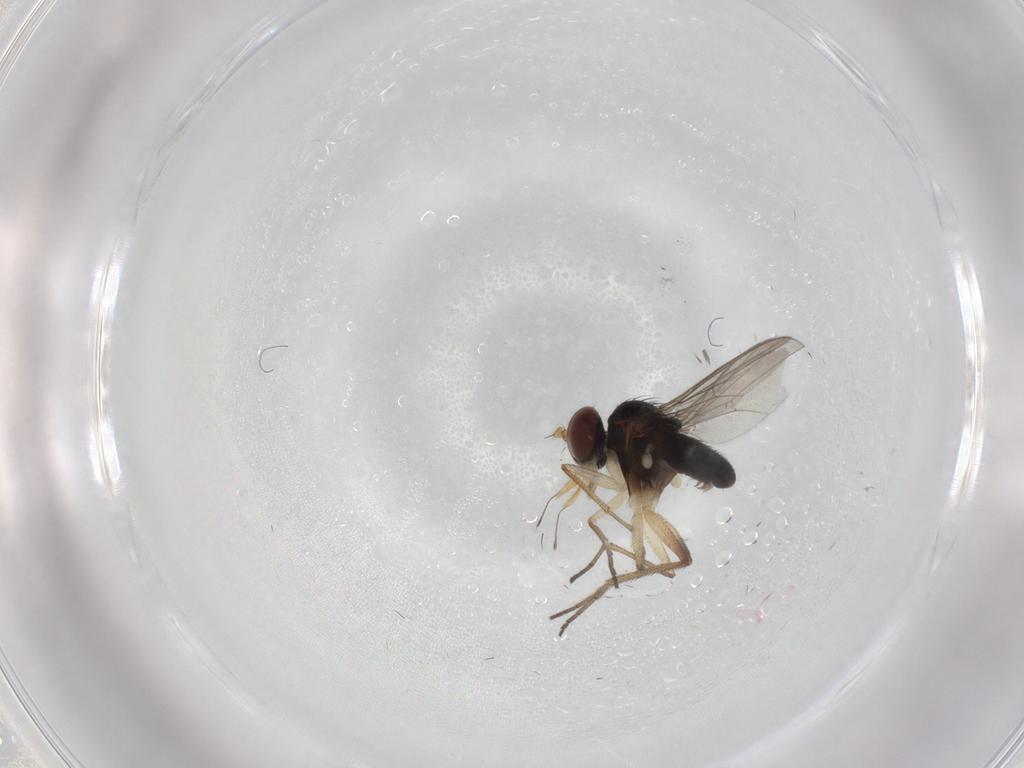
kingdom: Animalia
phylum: Arthropoda
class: Insecta
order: Diptera
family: Dolichopodidae
